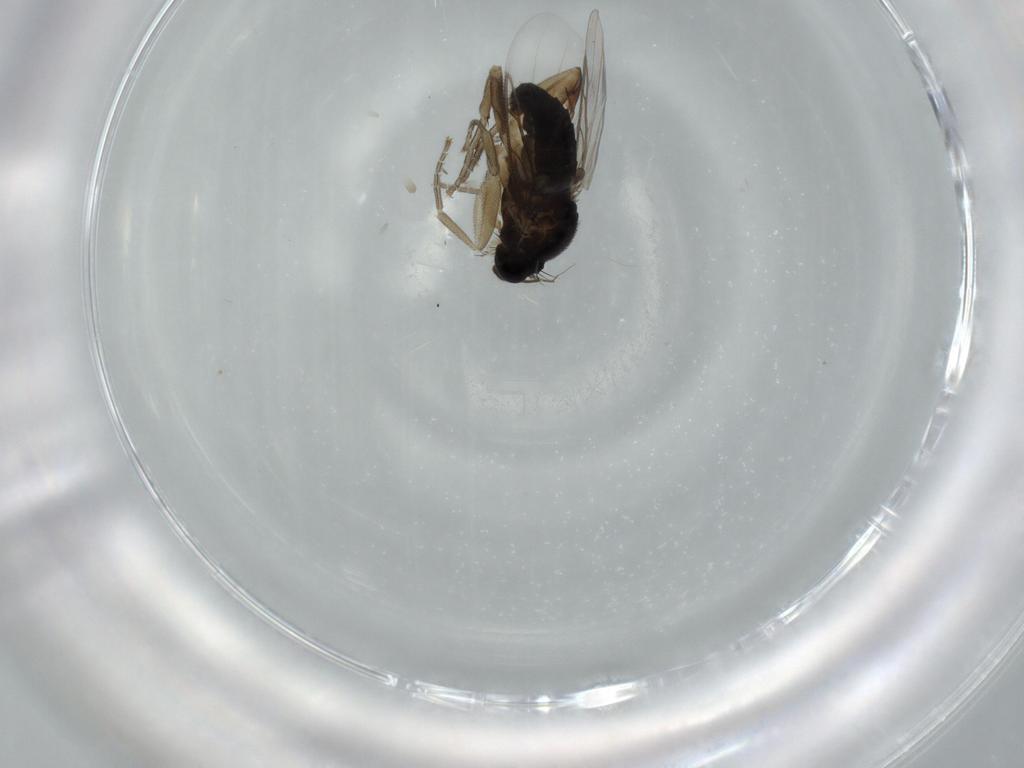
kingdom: Animalia
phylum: Arthropoda
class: Insecta
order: Diptera
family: Phoridae
